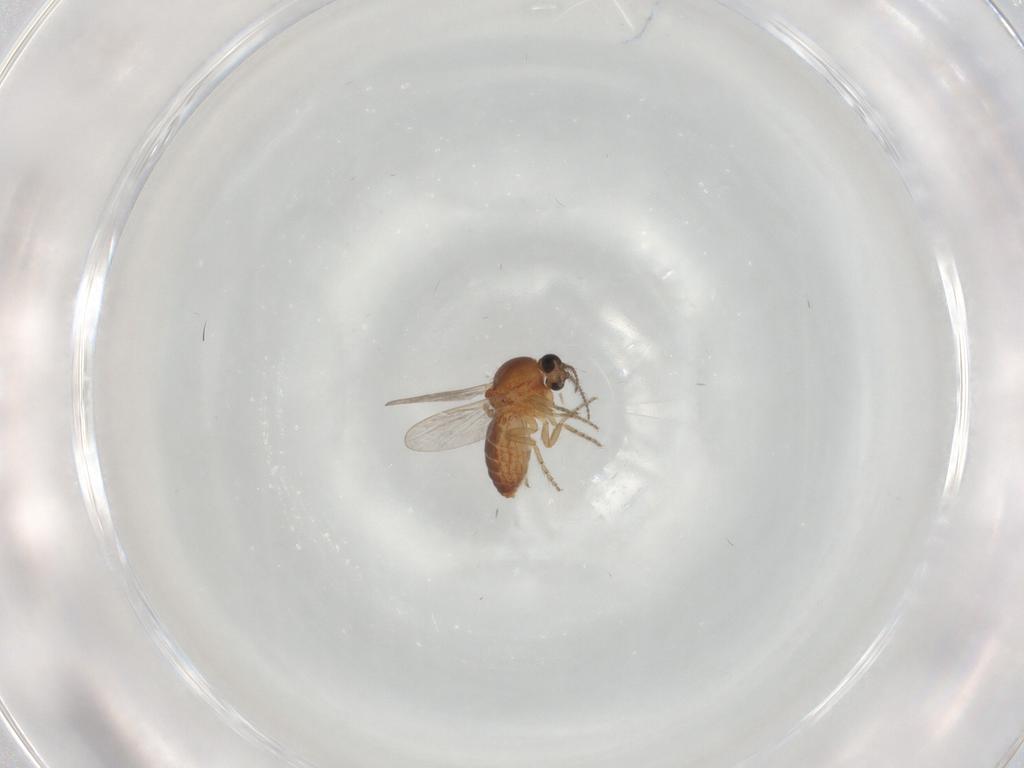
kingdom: Animalia
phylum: Arthropoda
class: Insecta
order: Diptera
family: Ceratopogonidae
